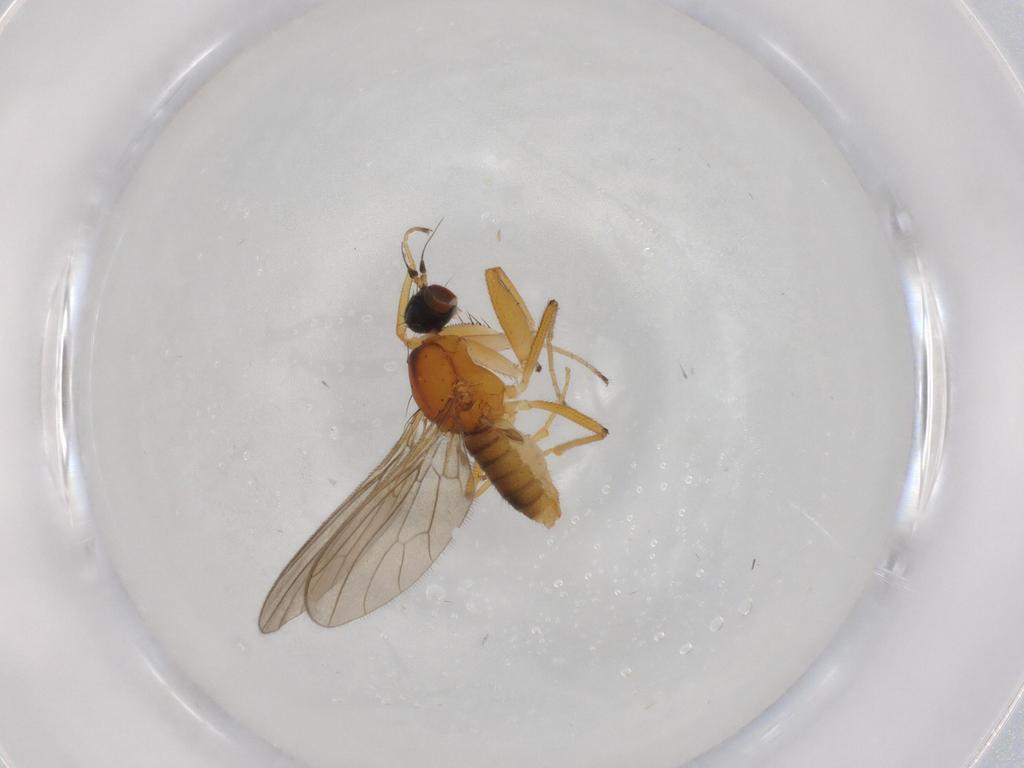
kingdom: Animalia
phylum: Arthropoda
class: Insecta
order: Diptera
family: Empididae
